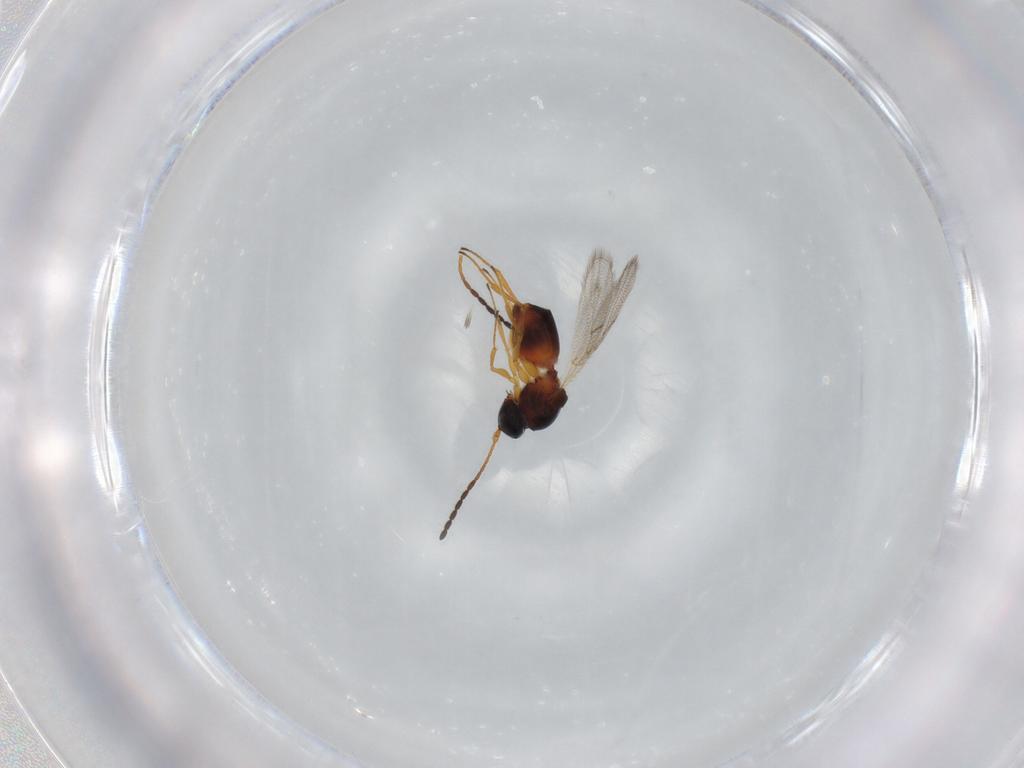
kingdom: Animalia
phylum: Arthropoda
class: Insecta
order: Hymenoptera
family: Figitidae
